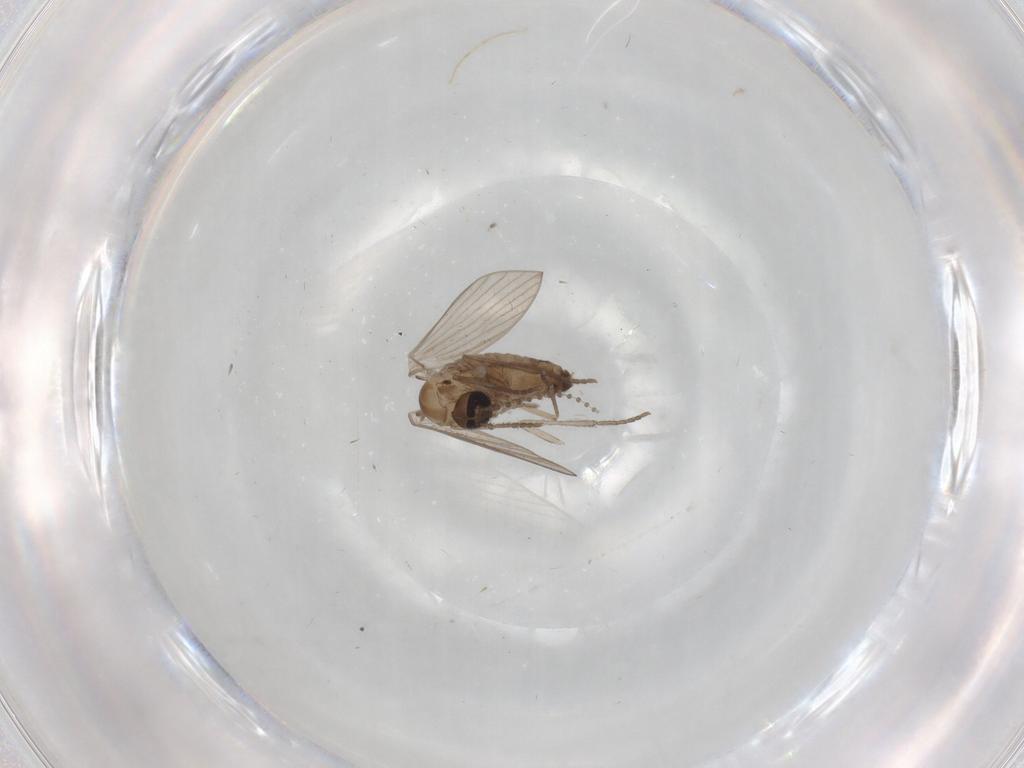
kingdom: Animalia
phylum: Arthropoda
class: Insecta
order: Diptera
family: Psychodidae
